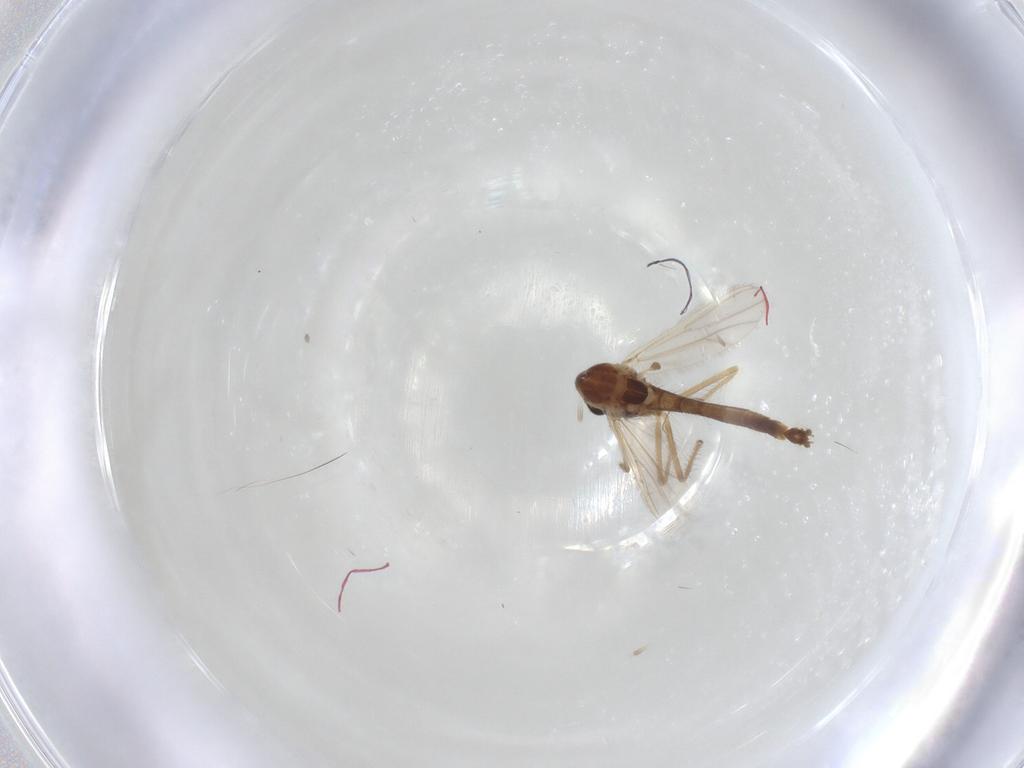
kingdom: Animalia
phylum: Arthropoda
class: Insecta
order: Diptera
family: Chironomidae
